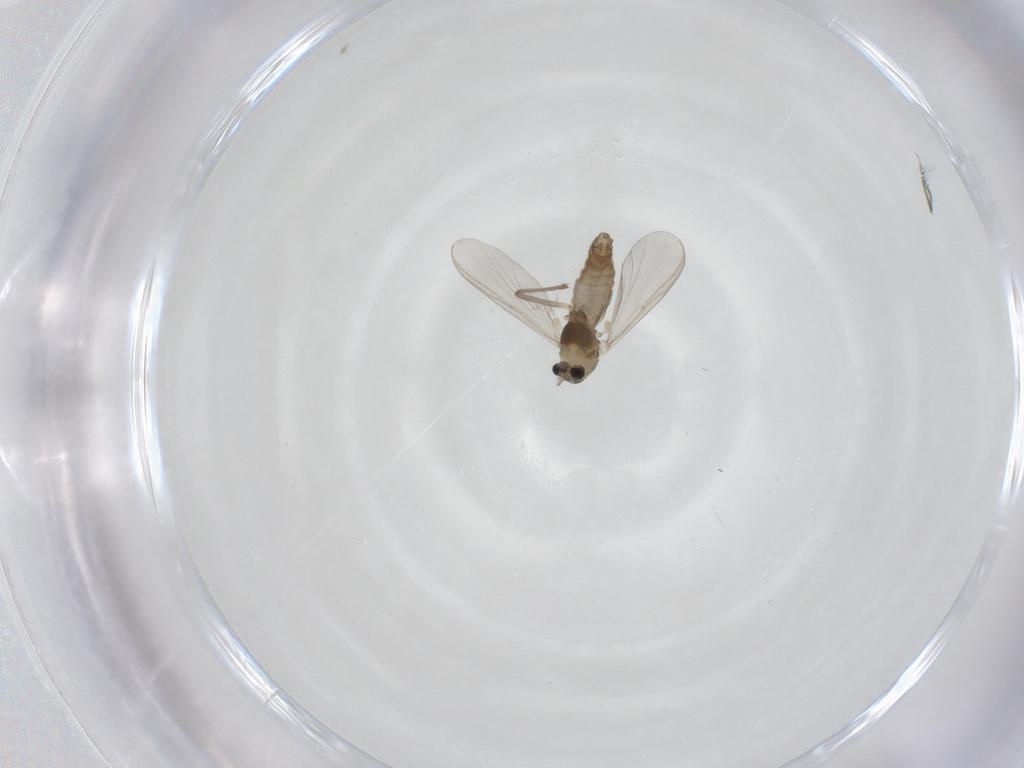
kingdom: Animalia
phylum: Arthropoda
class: Insecta
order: Diptera
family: Chironomidae
